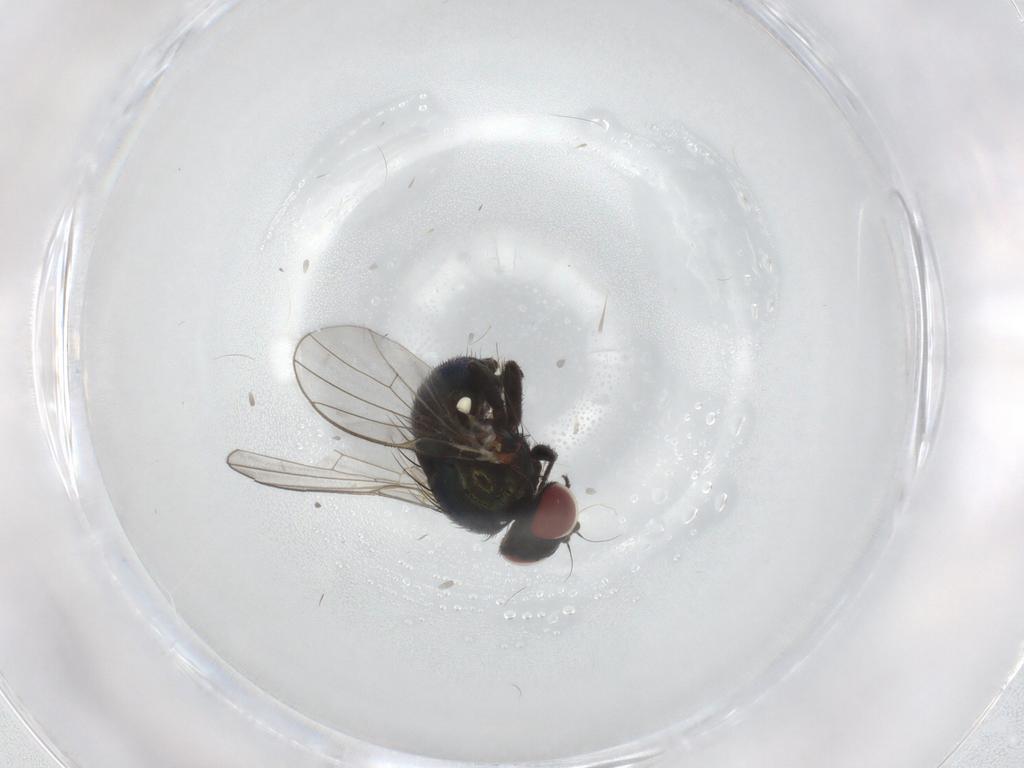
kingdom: Animalia
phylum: Arthropoda
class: Insecta
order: Diptera
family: Agromyzidae
